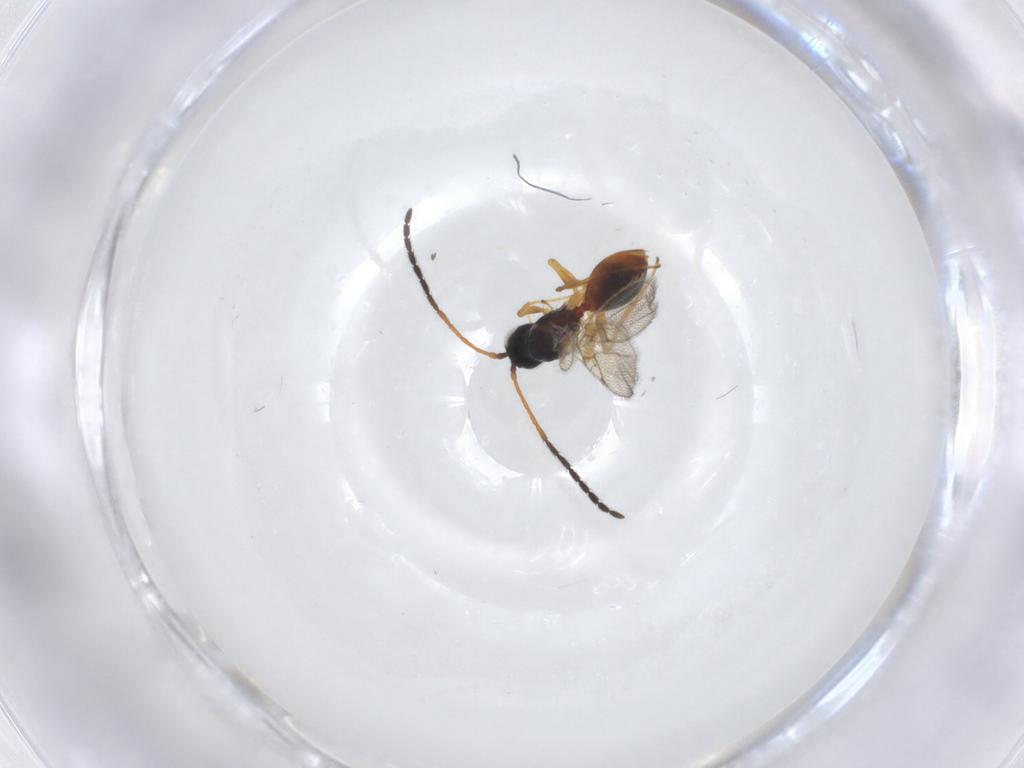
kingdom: Animalia
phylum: Arthropoda
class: Insecta
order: Hymenoptera
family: Figitidae
